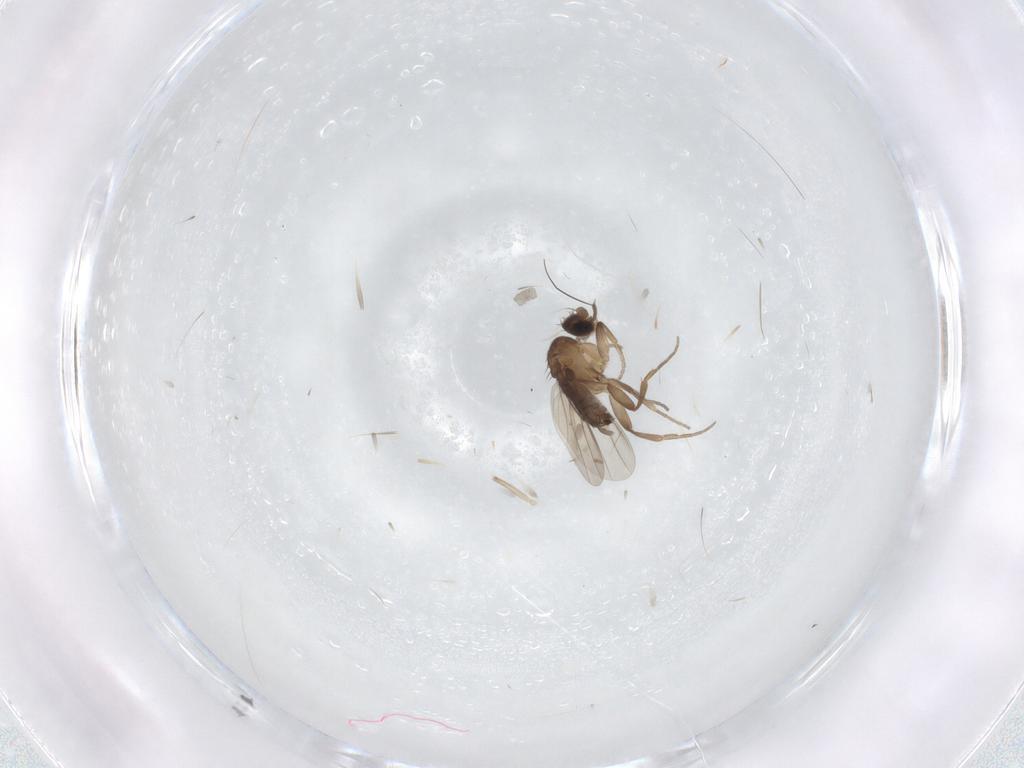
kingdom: Animalia
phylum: Arthropoda
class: Insecta
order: Diptera
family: Phoridae
